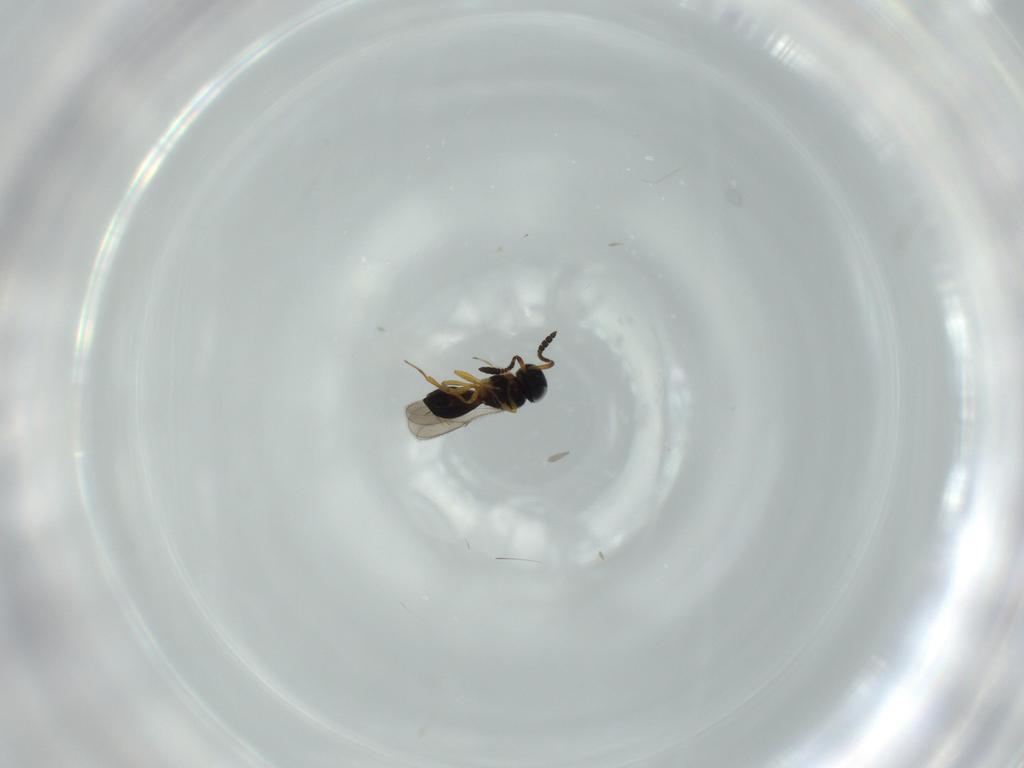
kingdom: Animalia
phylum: Arthropoda
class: Insecta
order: Hymenoptera
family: Scelionidae
